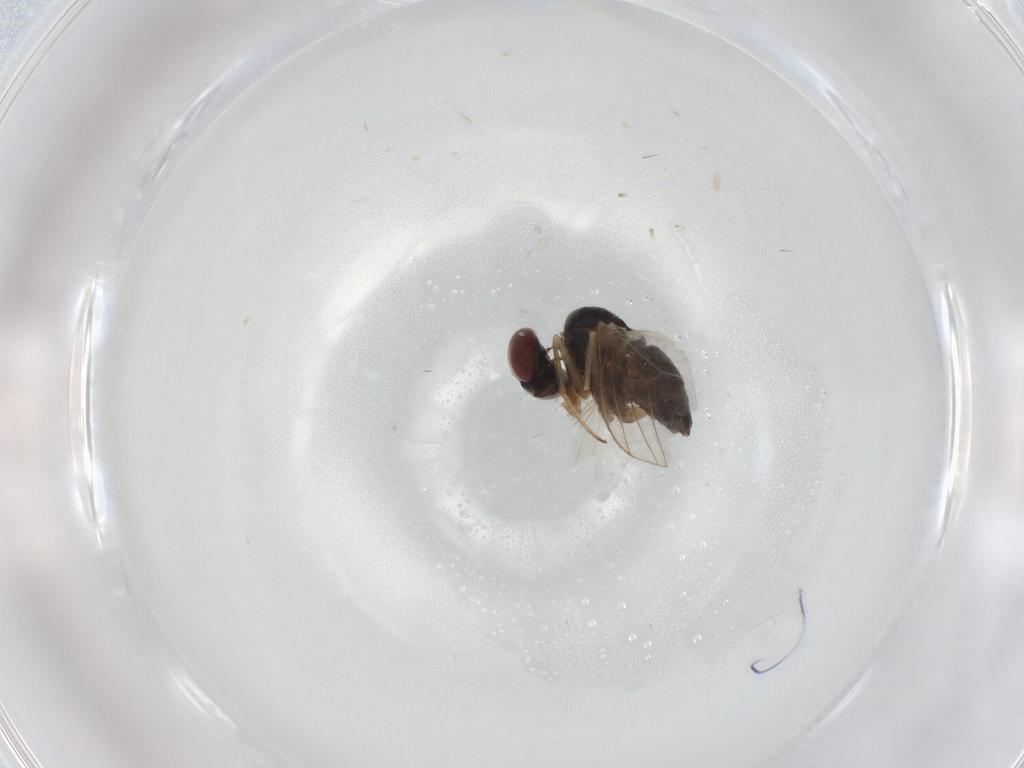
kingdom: Animalia
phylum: Arthropoda
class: Insecta
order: Diptera
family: Dolichopodidae
